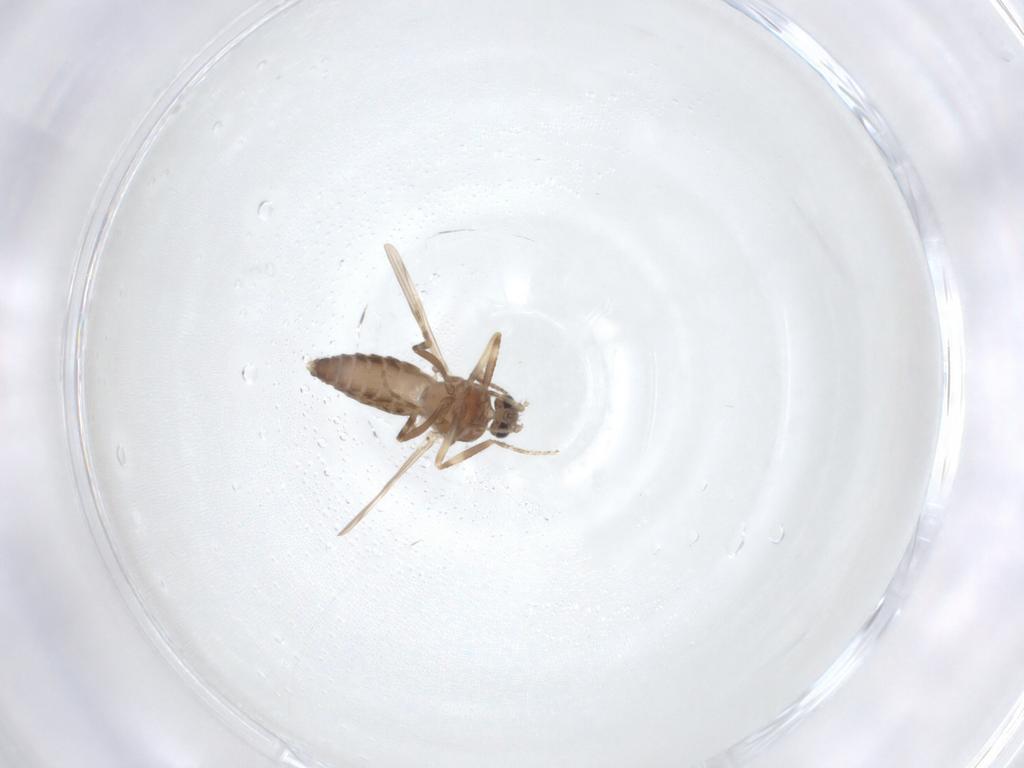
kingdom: Animalia
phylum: Arthropoda
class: Insecta
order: Diptera
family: Ceratopogonidae
